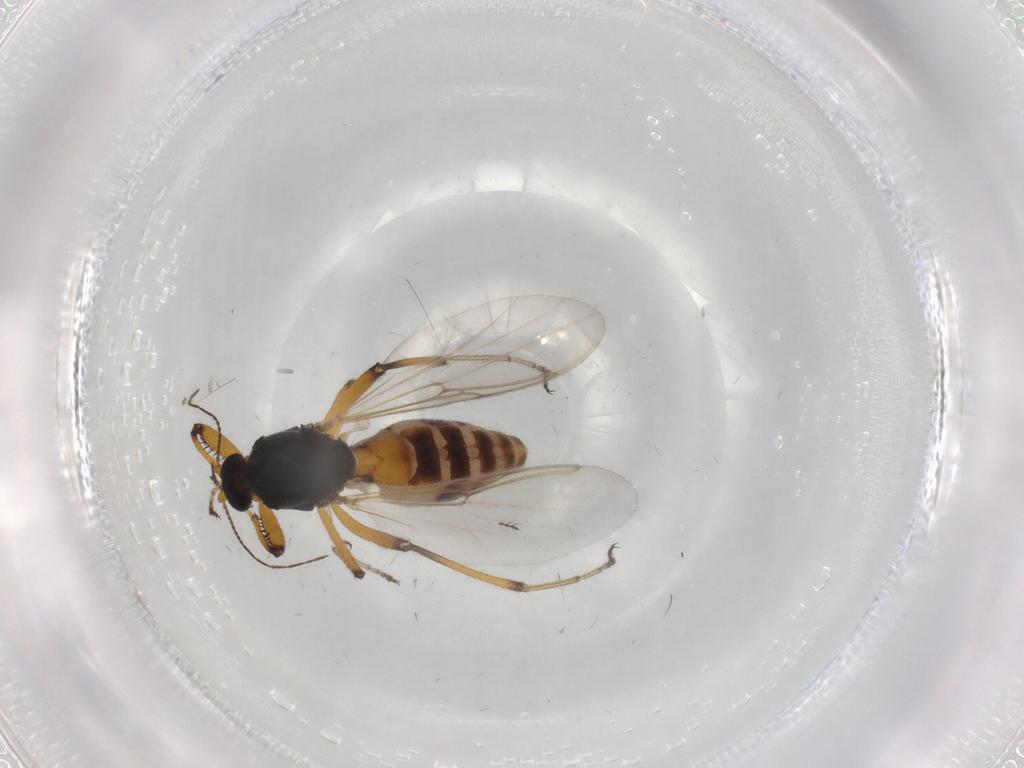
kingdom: Animalia
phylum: Arthropoda
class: Insecta
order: Diptera
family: Ceratopogonidae
